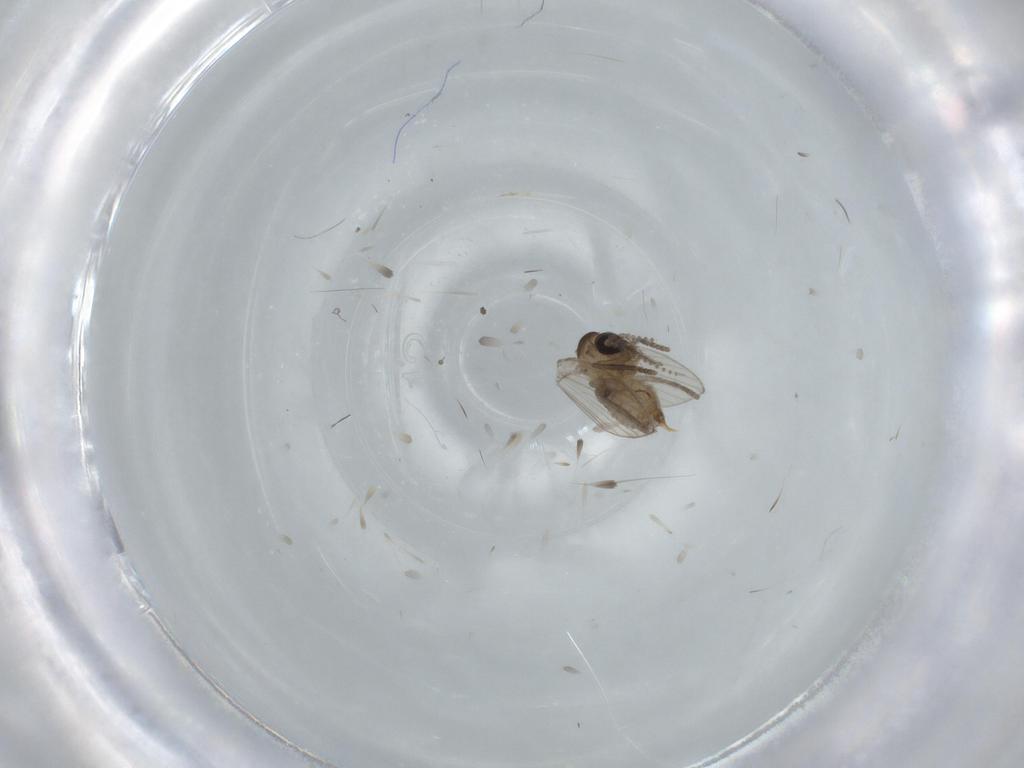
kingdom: Animalia
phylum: Arthropoda
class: Insecta
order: Diptera
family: Psychodidae
